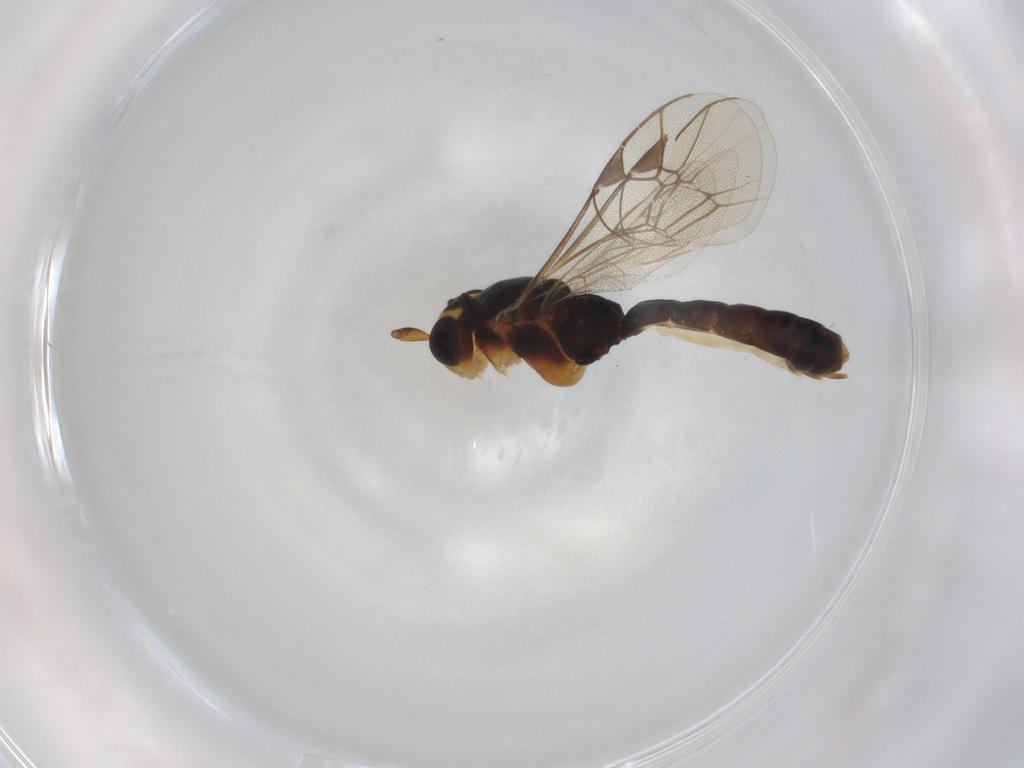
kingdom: Animalia
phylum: Arthropoda
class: Insecta
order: Hymenoptera
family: Ichneumonidae
